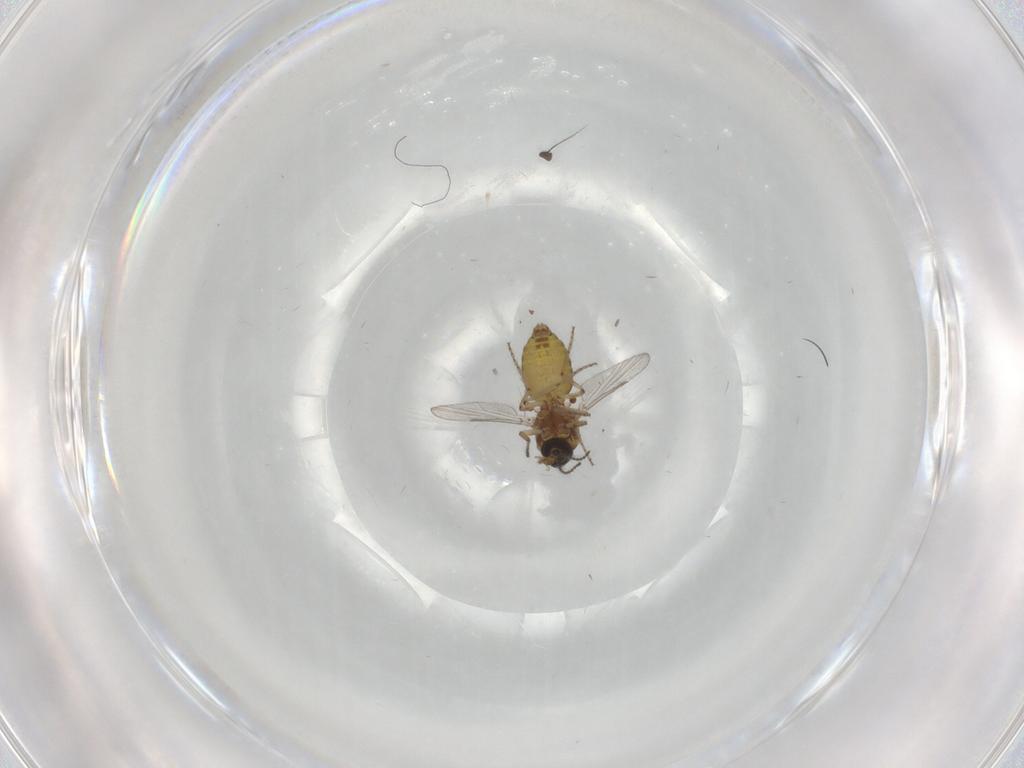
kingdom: Animalia
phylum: Arthropoda
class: Insecta
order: Diptera
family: Ceratopogonidae
